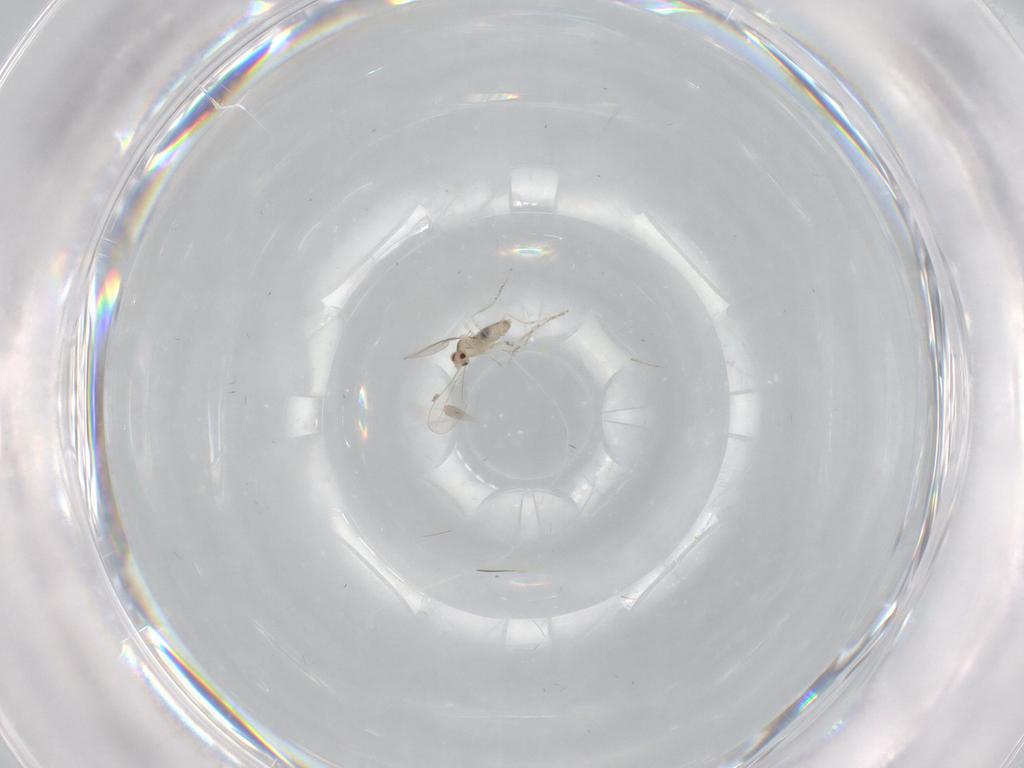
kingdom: Animalia
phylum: Arthropoda
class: Insecta
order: Diptera
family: Cecidomyiidae
